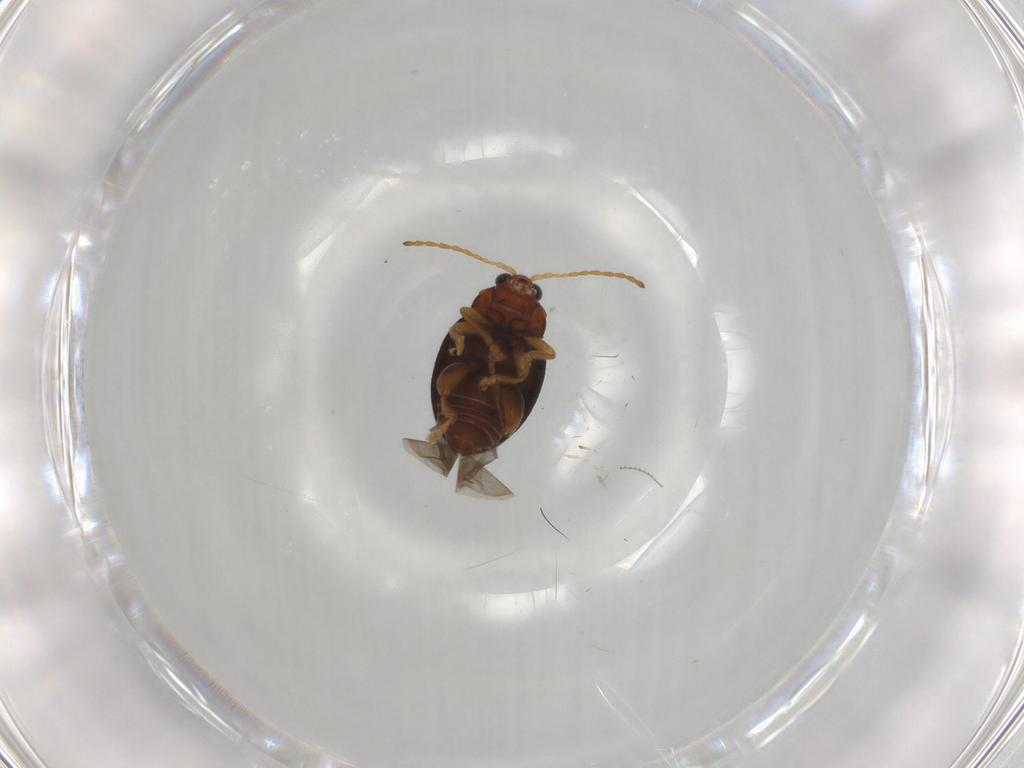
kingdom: Animalia
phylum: Arthropoda
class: Insecta
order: Coleoptera
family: Chrysomelidae
